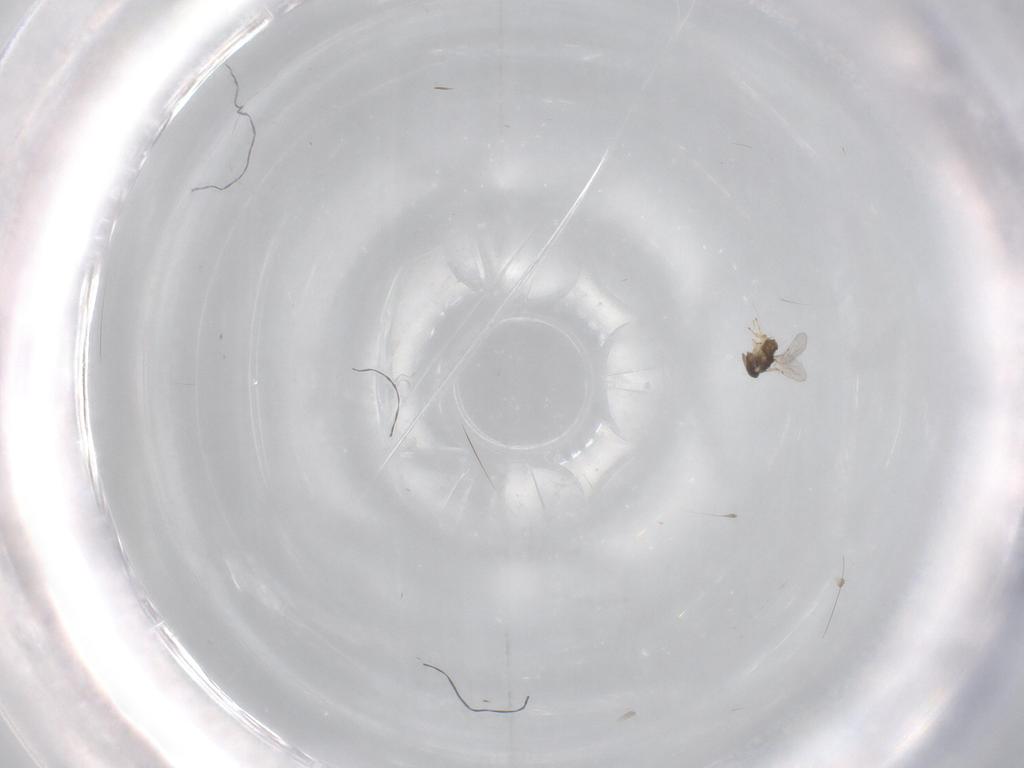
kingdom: Animalia
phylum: Arthropoda
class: Insecta
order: Hymenoptera
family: Encyrtidae
